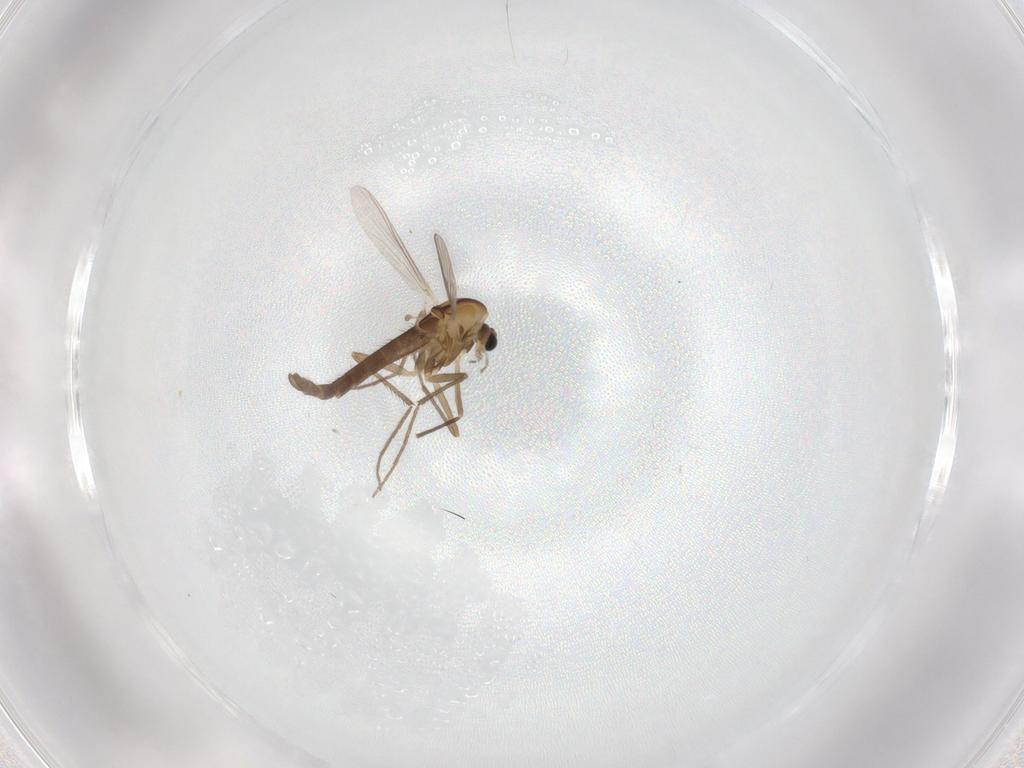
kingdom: Animalia
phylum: Arthropoda
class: Insecta
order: Diptera
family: Chironomidae
